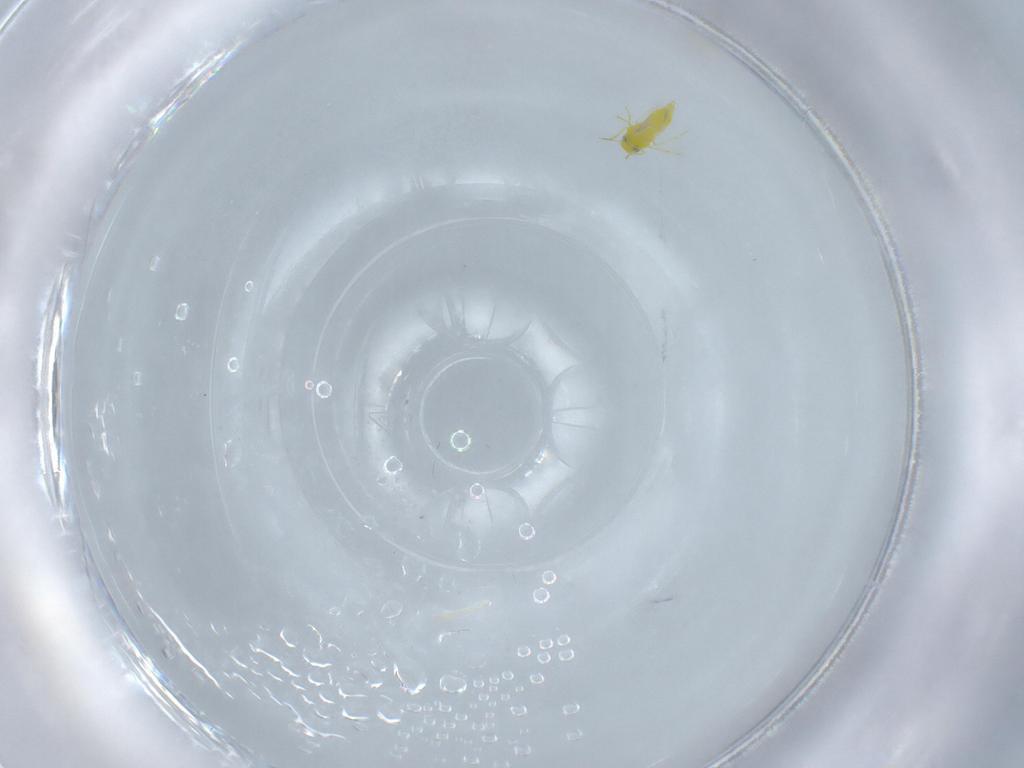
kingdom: Animalia
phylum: Arthropoda
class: Insecta
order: Hemiptera
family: Aleyrodidae
